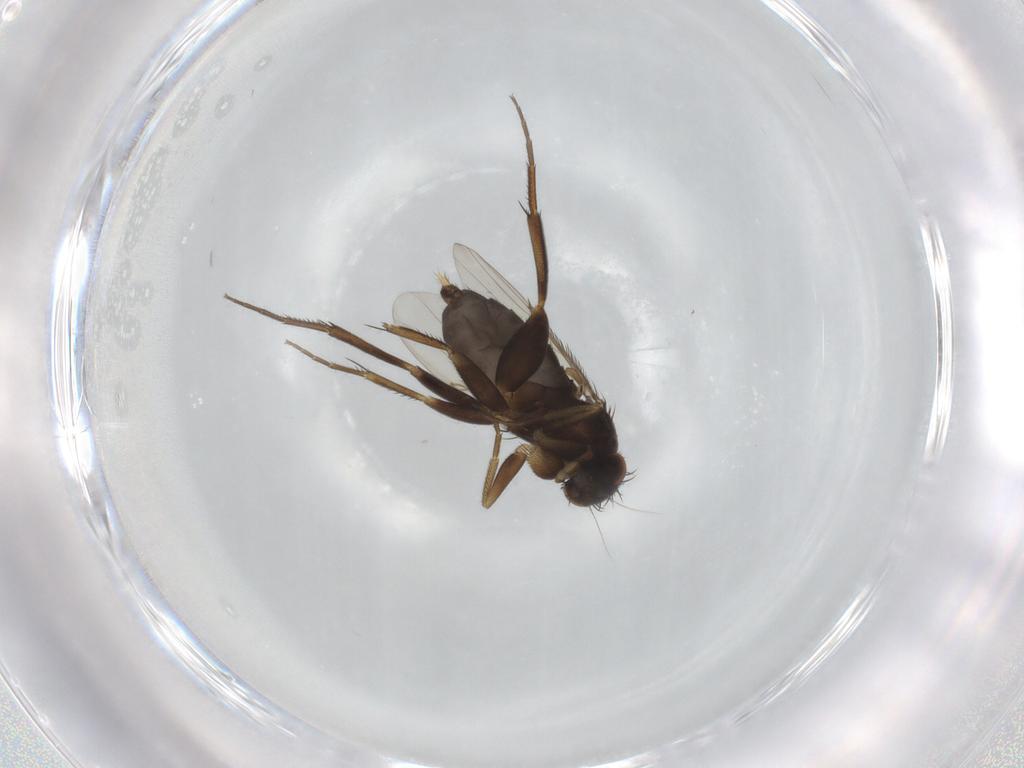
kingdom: Animalia
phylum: Arthropoda
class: Insecta
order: Diptera
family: Phoridae
